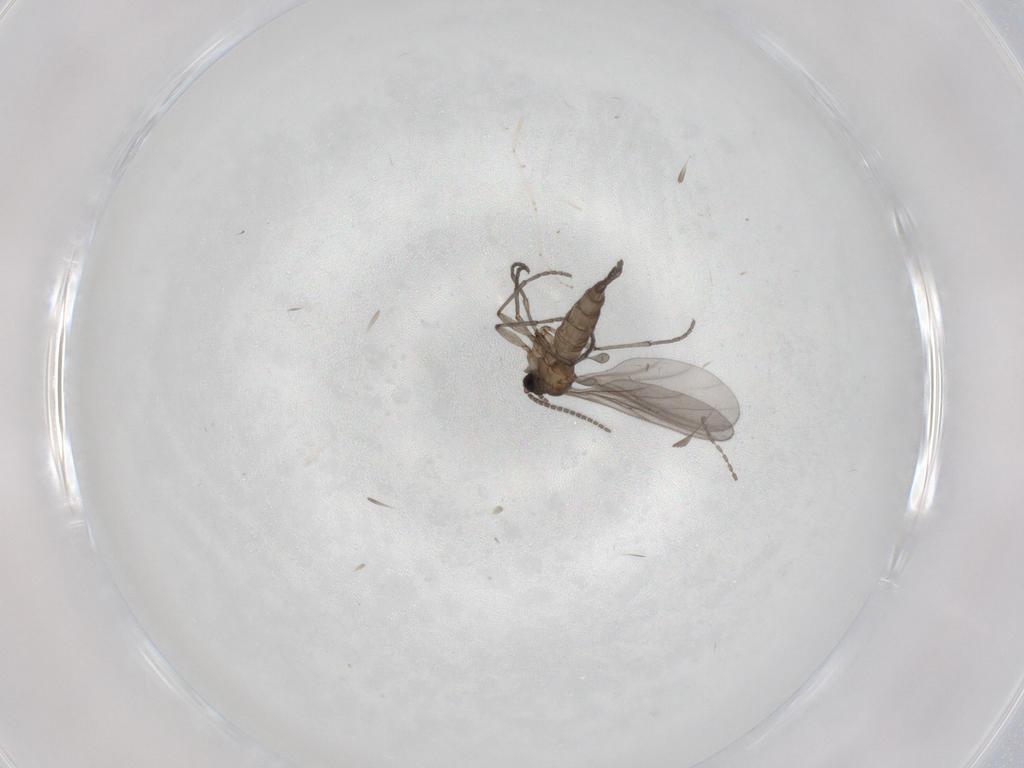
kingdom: Animalia
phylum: Arthropoda
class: Insecta
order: Diptera
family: Sciaridae
